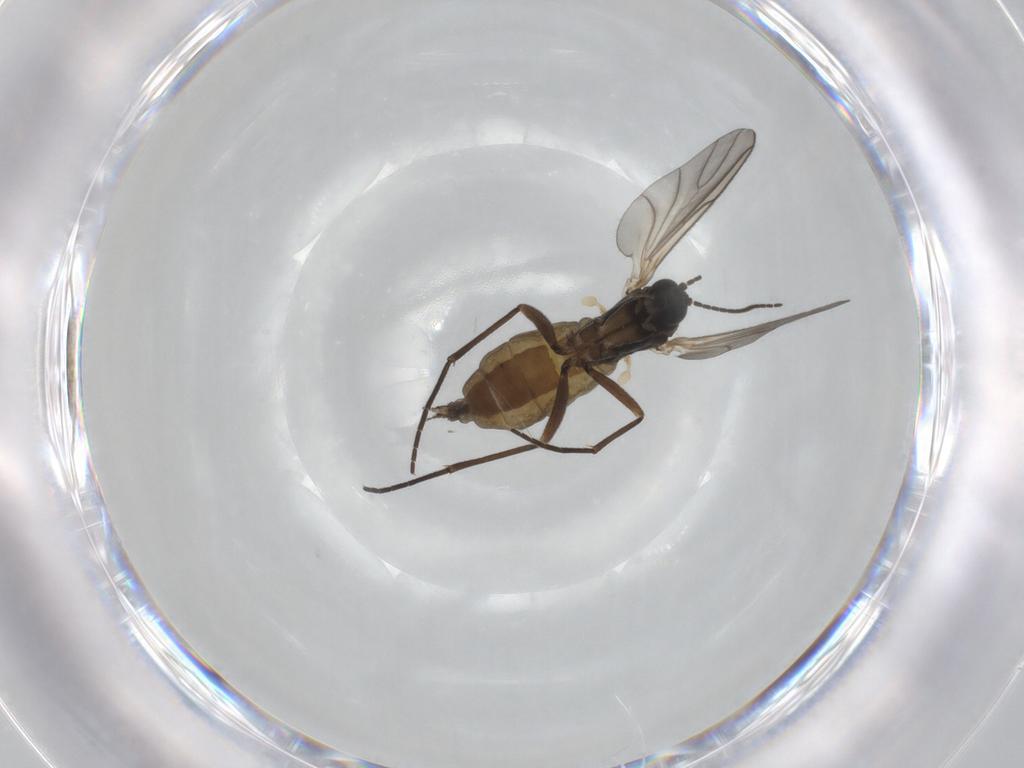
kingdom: Animalia
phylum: Arthropoda
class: Insecta
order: Diptera
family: Sciaridae
